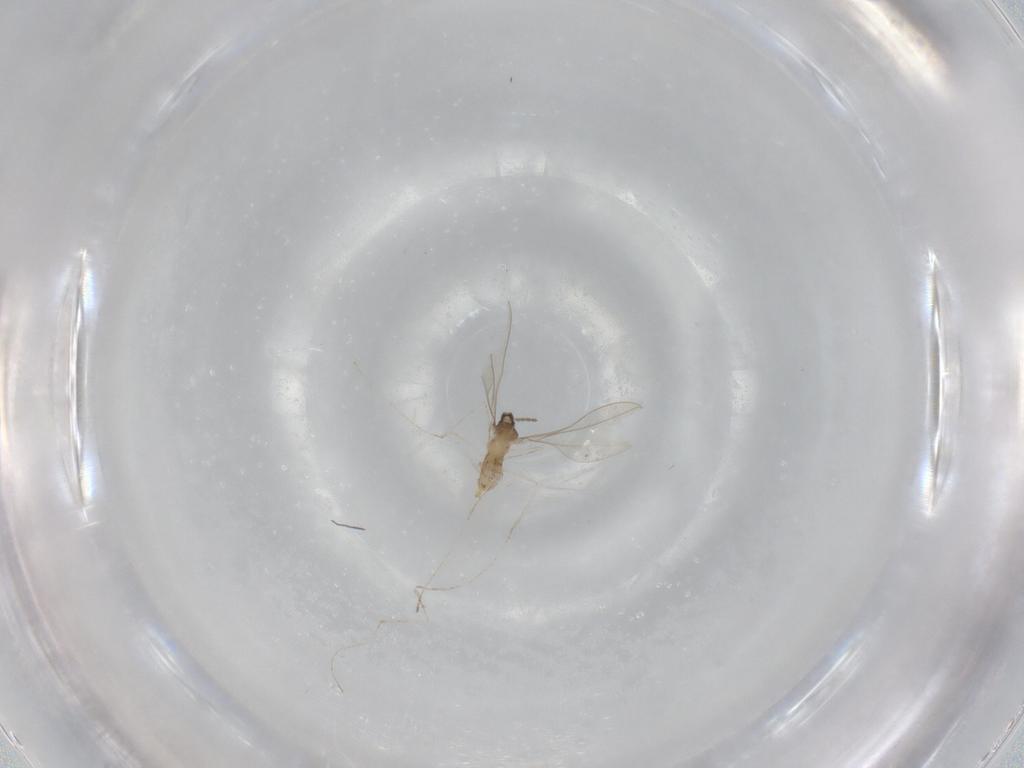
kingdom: Animalia
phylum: Arthropoda
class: Insecta
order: Diptera
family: Cecidomyiidae
